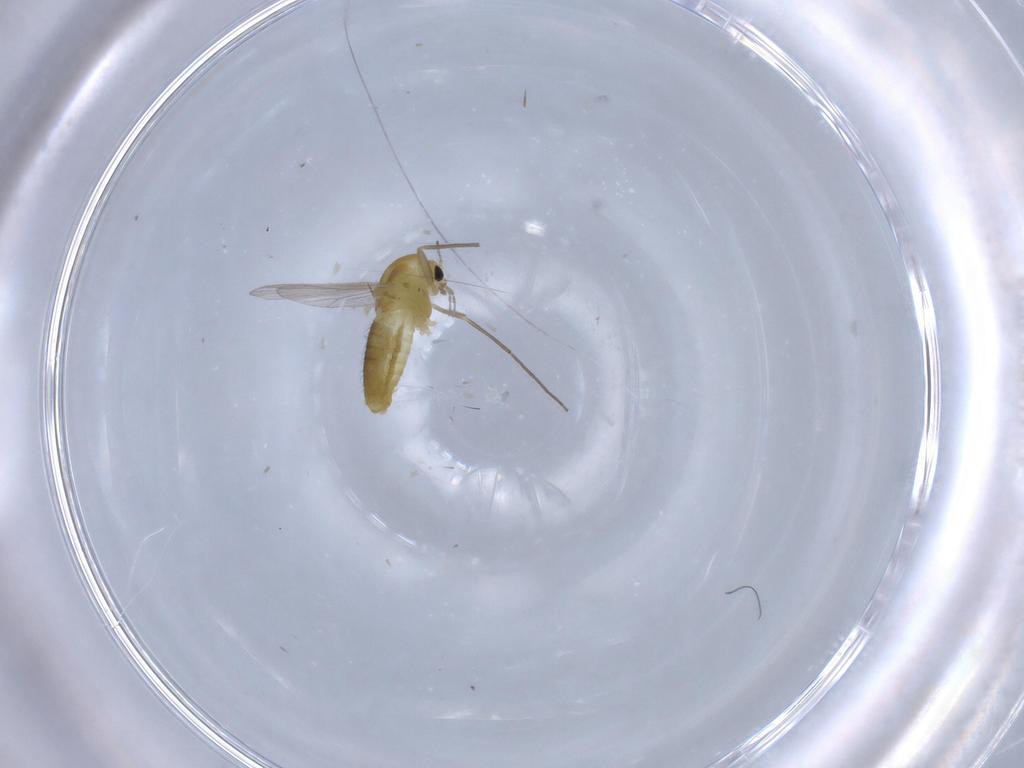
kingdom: Animalia
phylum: Arthropoda
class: Insecta
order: Diptera
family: Chironomidae
